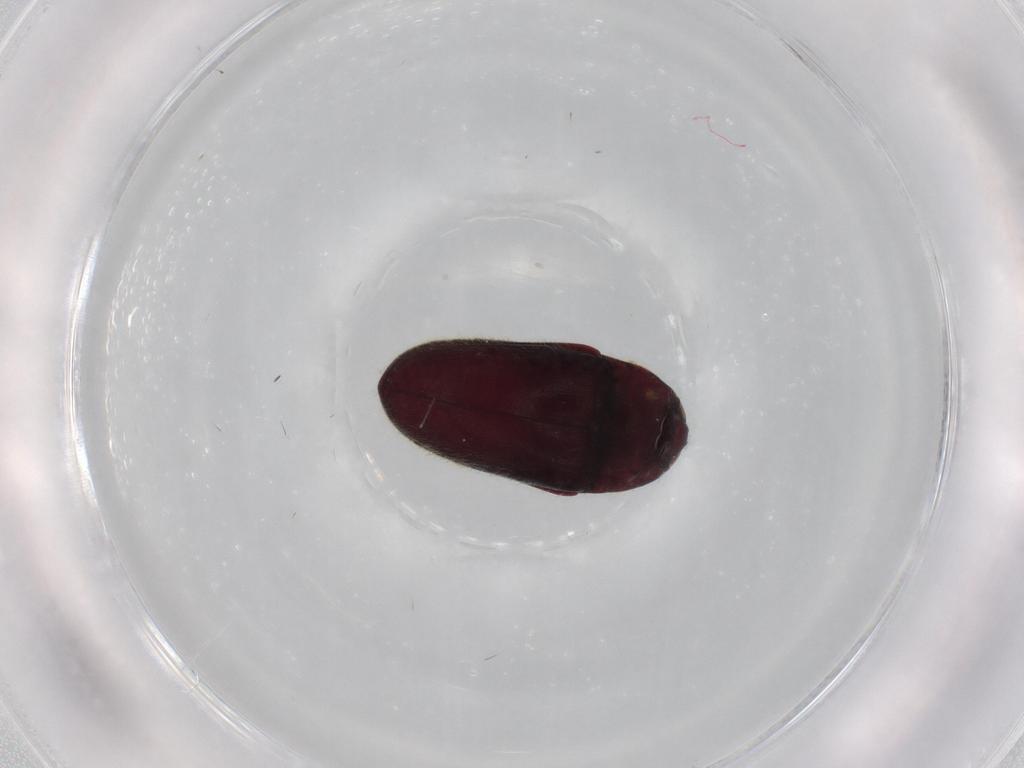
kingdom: Animalia
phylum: Arthropoda
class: Insecta
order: Coleoptera
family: Throscidae
